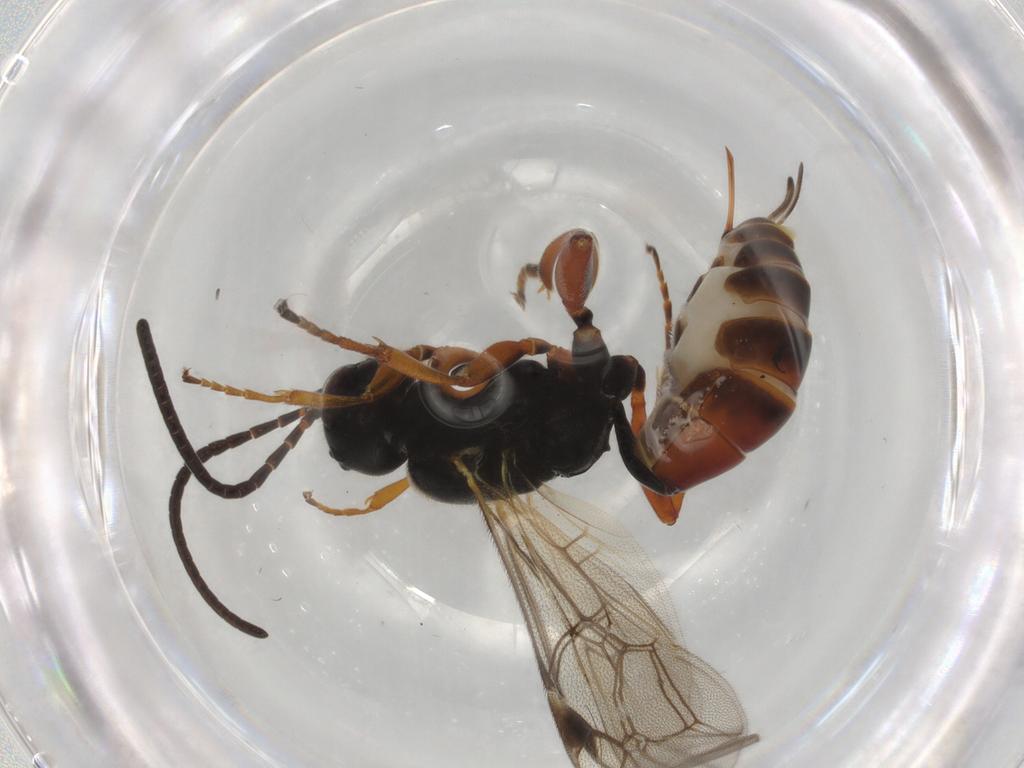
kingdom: Animalia
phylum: Arthropoda
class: Insecta
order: Hymenoptera
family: Ichneumonidae
